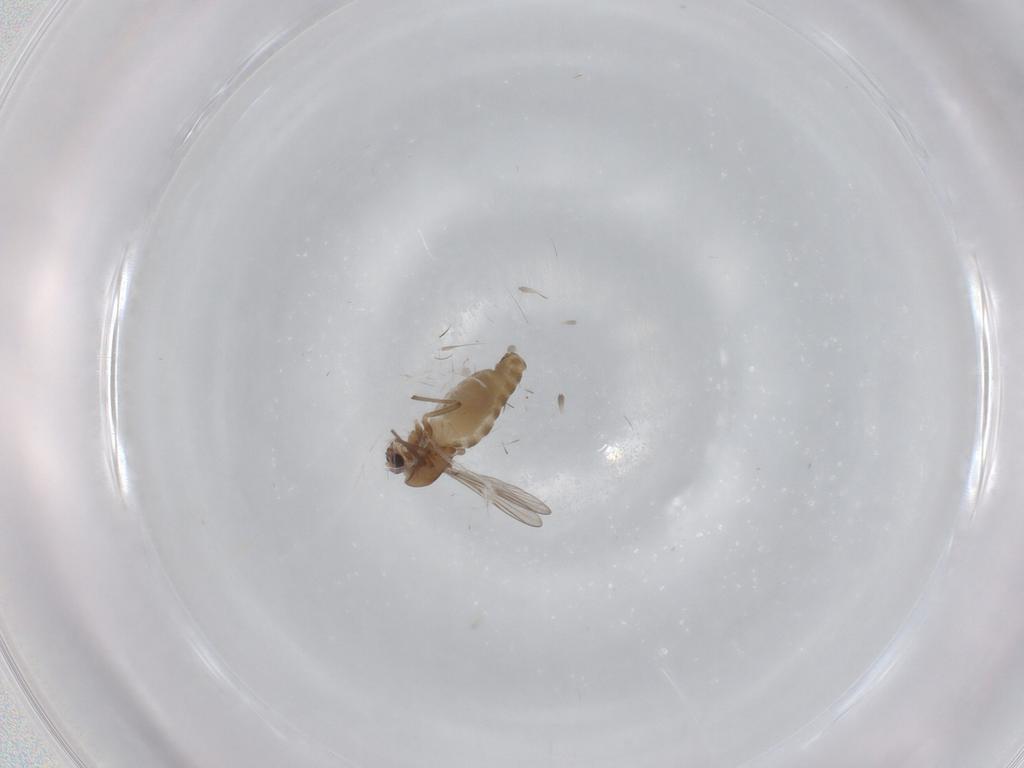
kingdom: Animalia
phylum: Arthropoda
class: Insecta
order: Diptera
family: Chironomidae
